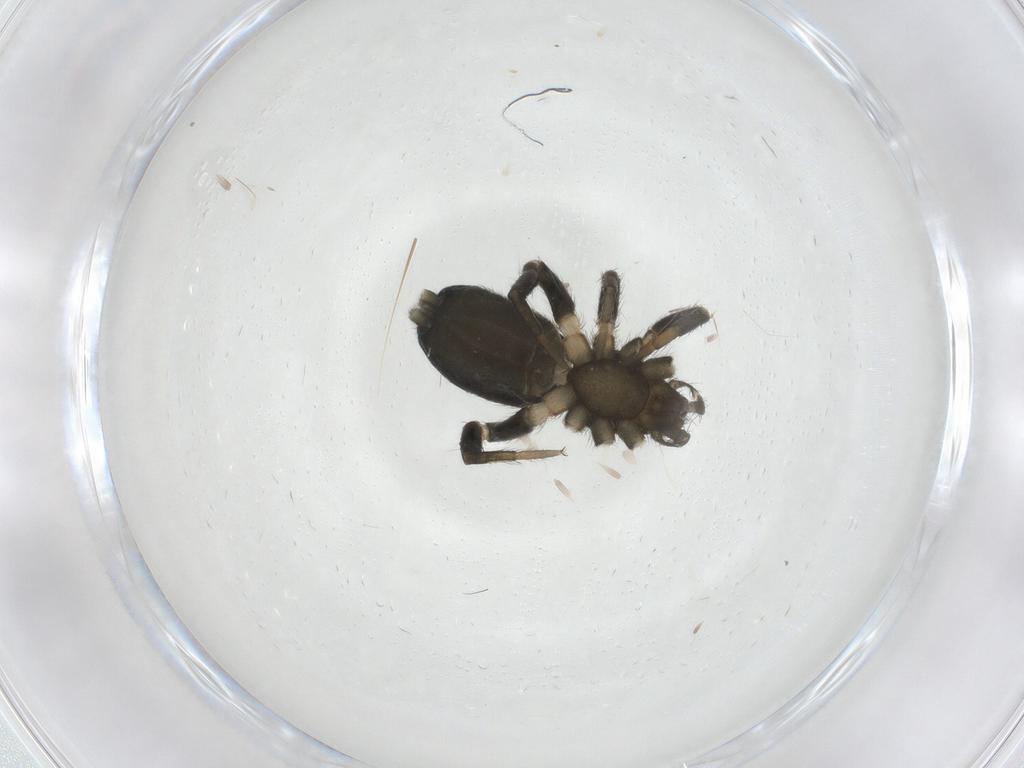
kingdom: Animalia
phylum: Arthropoda
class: Arachnida
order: Araneae
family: Gnaphosidae
